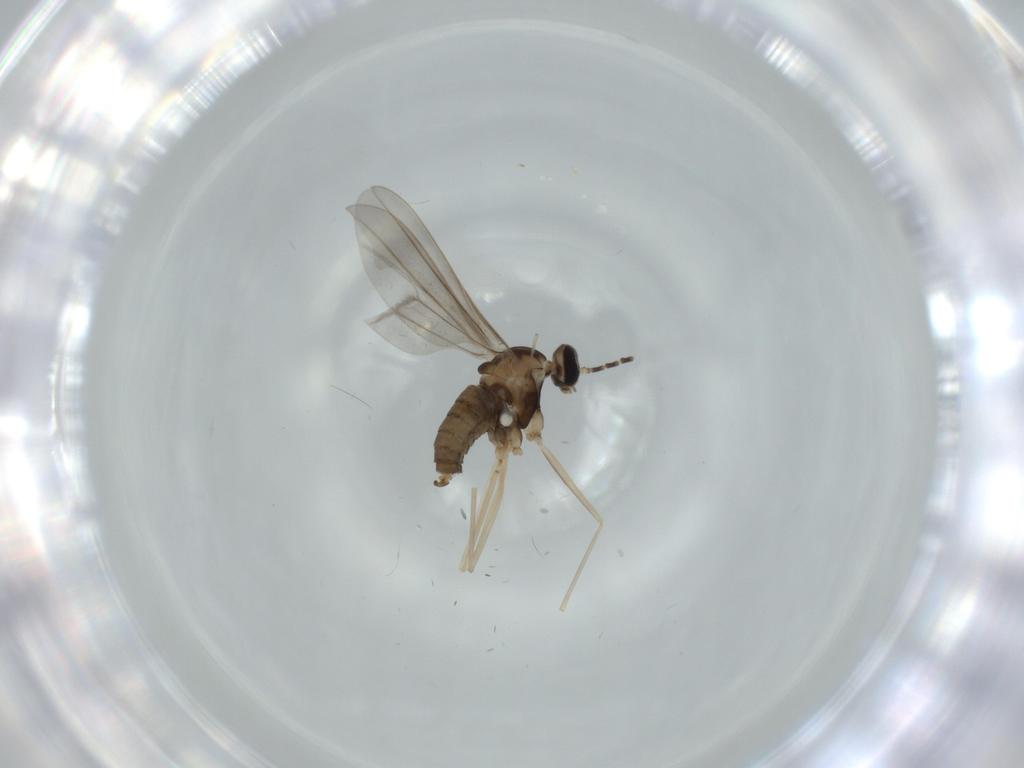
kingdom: Animalia
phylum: Arthropoda
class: Insecta
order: Diptera
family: Cecidomyiidae
